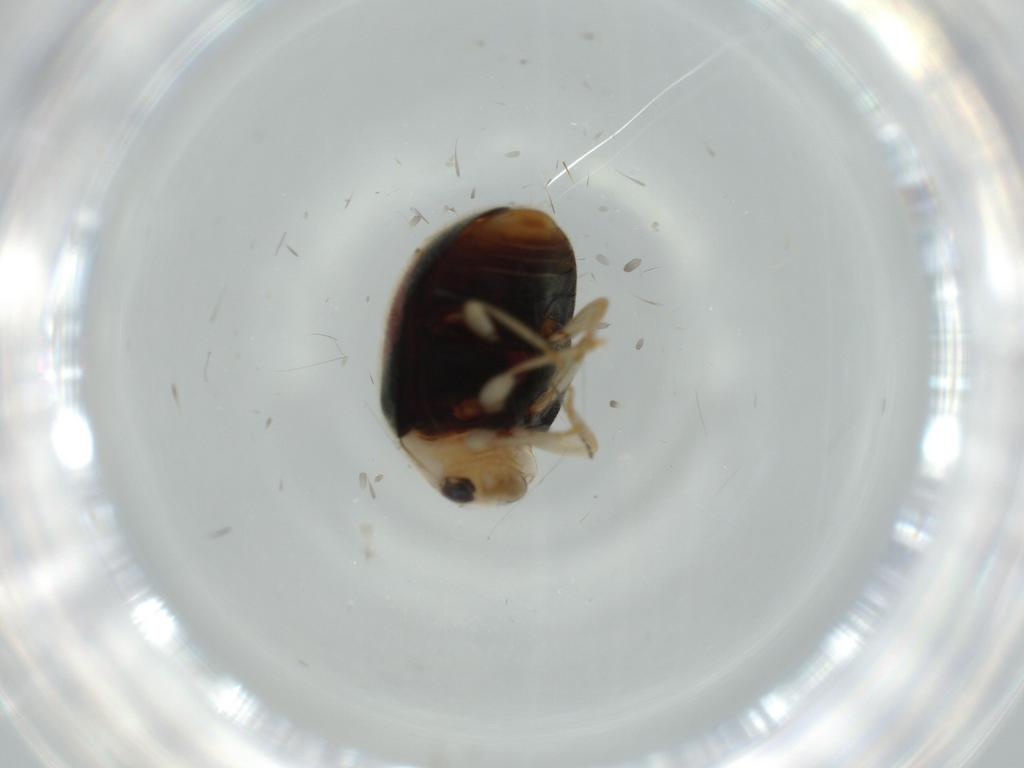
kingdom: Animalia
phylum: Arthropoda
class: Insecta
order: Coleoptera
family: Coccinellidae
